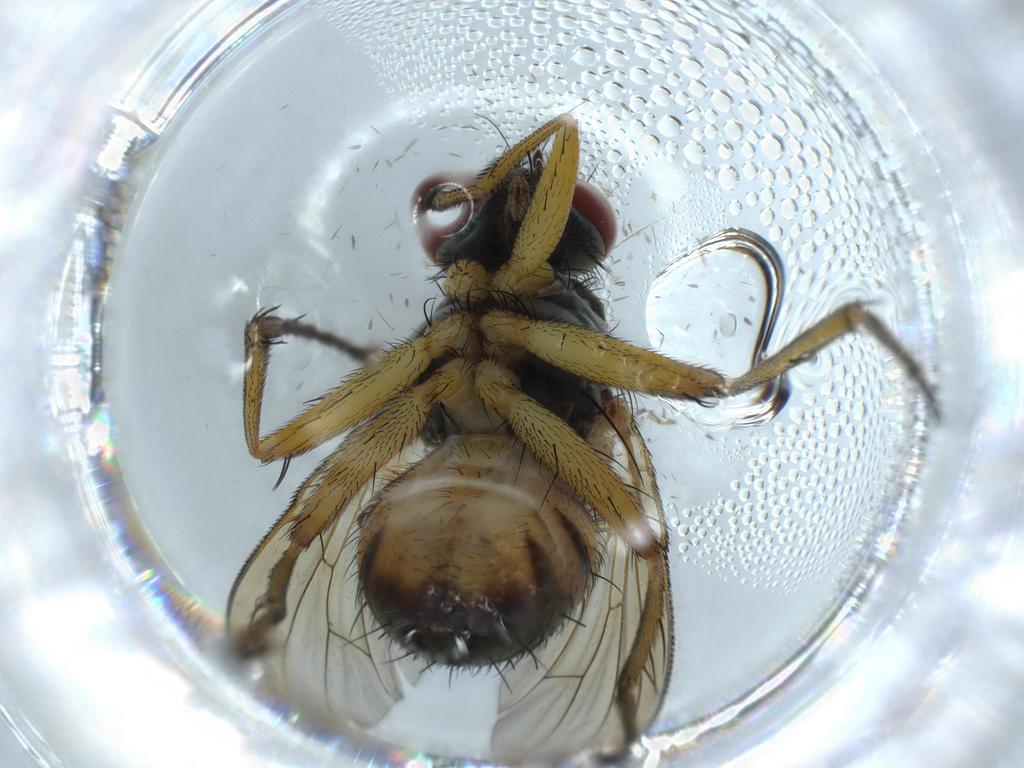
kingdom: Animalia
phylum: Arthropoda
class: Insecta
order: Diptera
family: Muscidae
